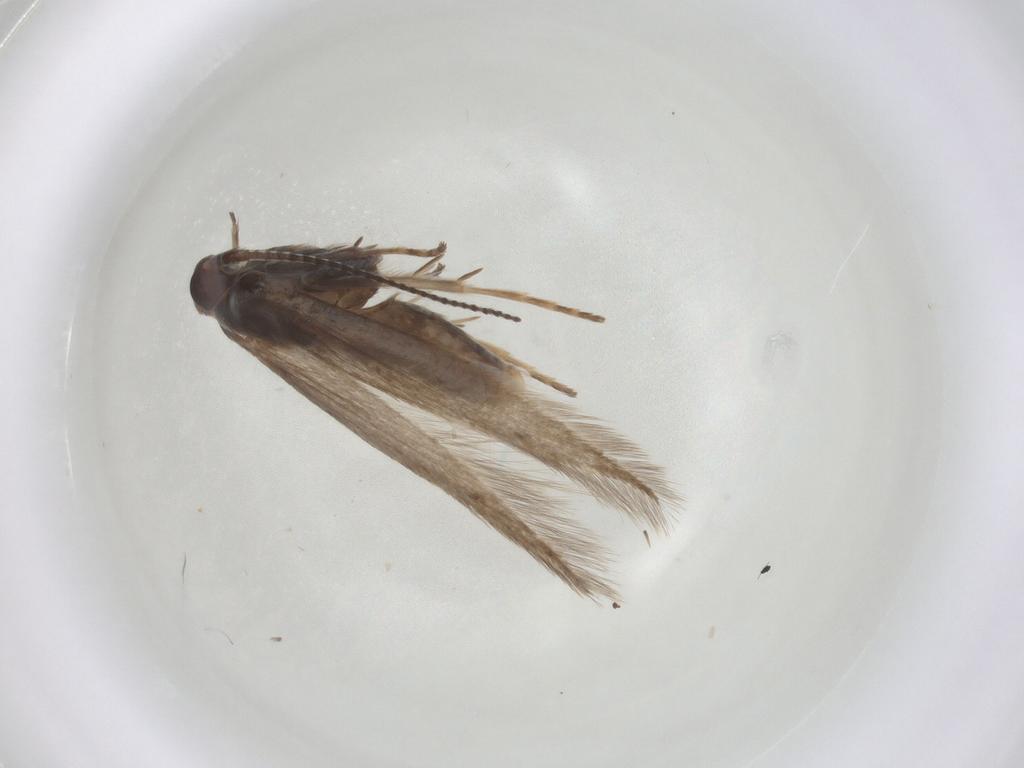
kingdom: Animalia
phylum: Arthropoda
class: Insecta
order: Lepidoptera
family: Coleophoridae
